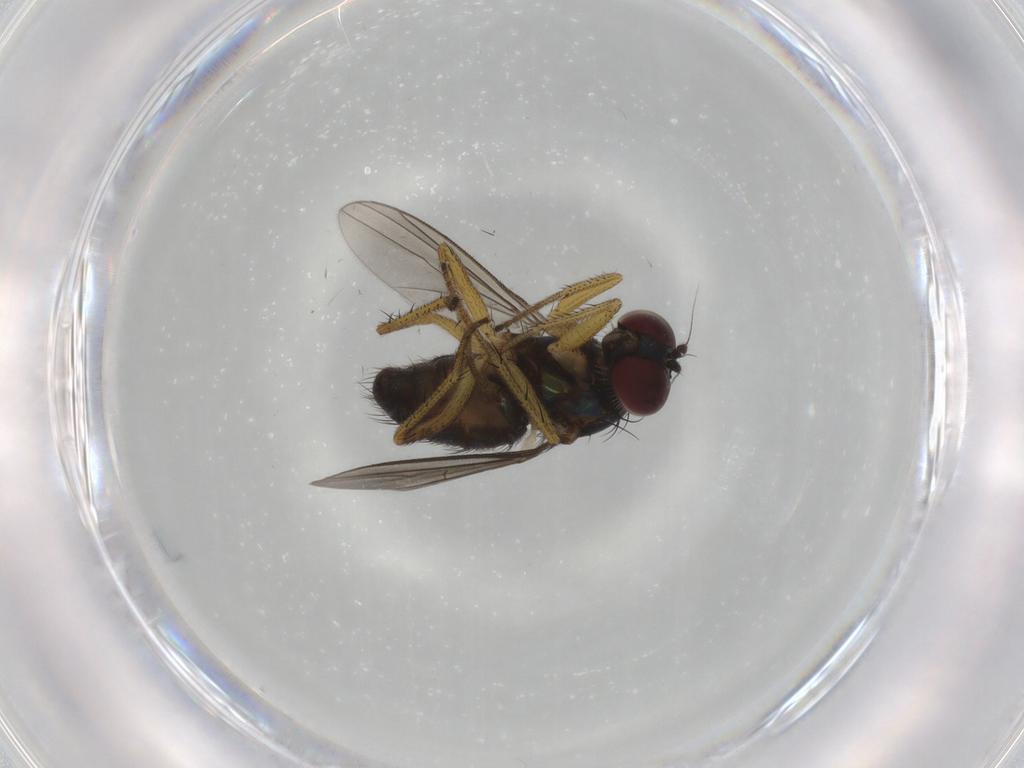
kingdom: Animalia
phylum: Arthropoda
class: Insecta
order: Diptera
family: Dolichopodidae
